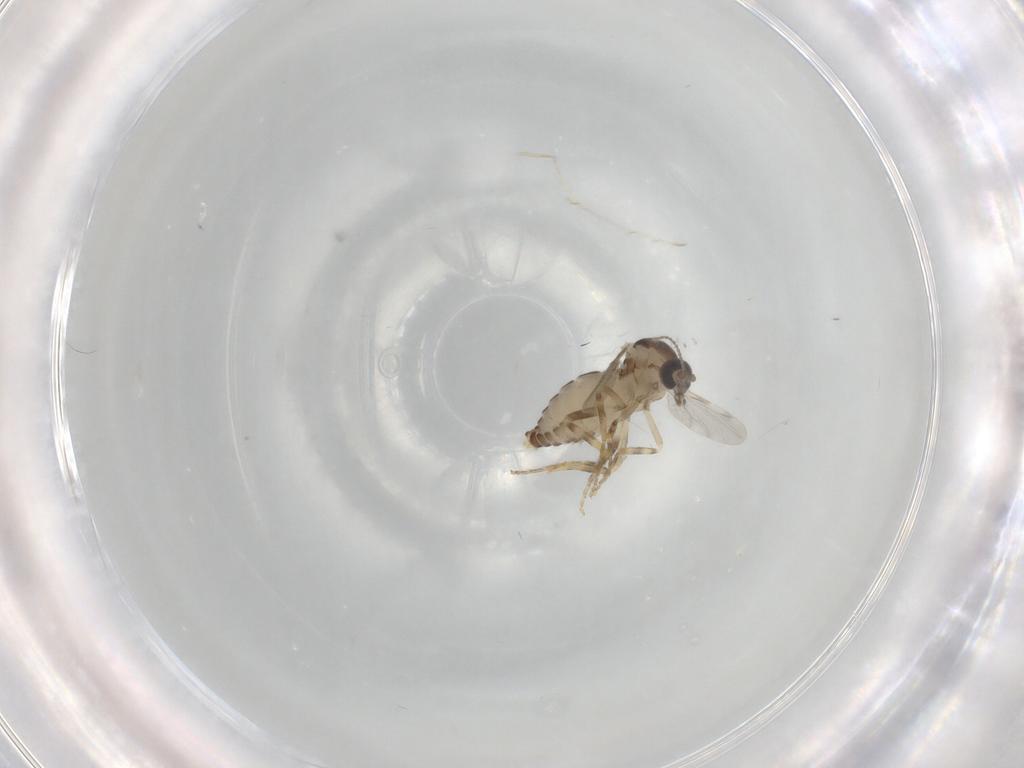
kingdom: Animalia
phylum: Arthropoda
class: Insecta
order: Diptera
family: Ceratopogonidae
